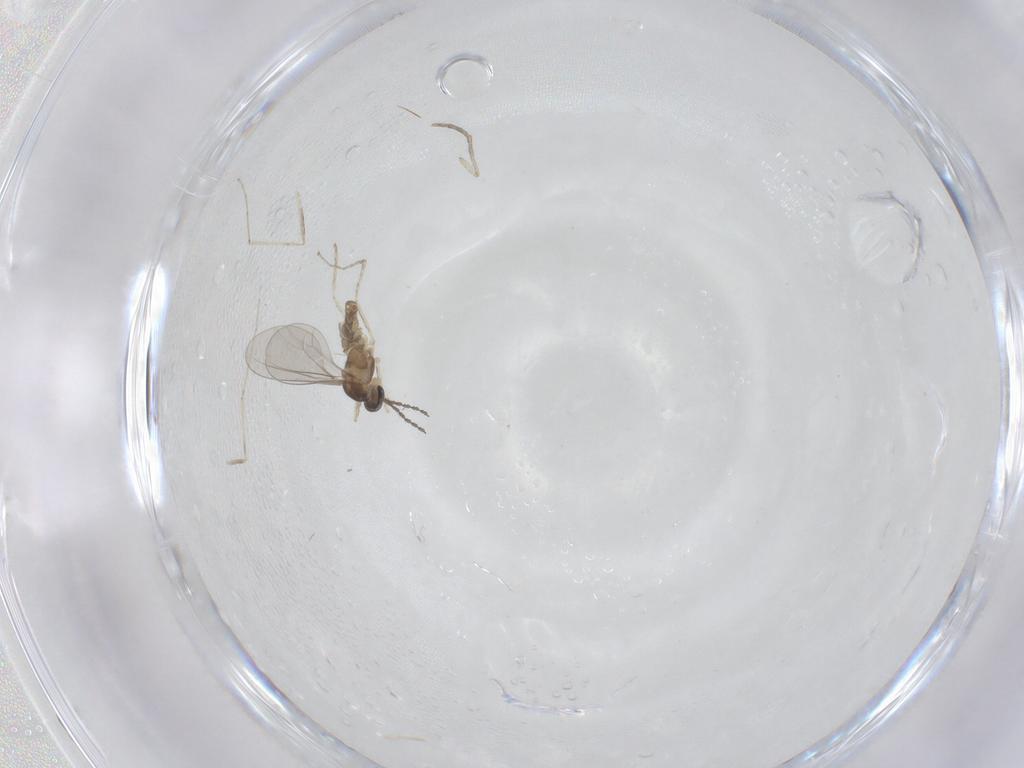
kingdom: Animalia
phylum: Arthropoda
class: Insecta
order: Diptera
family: Cecidomyiidae
